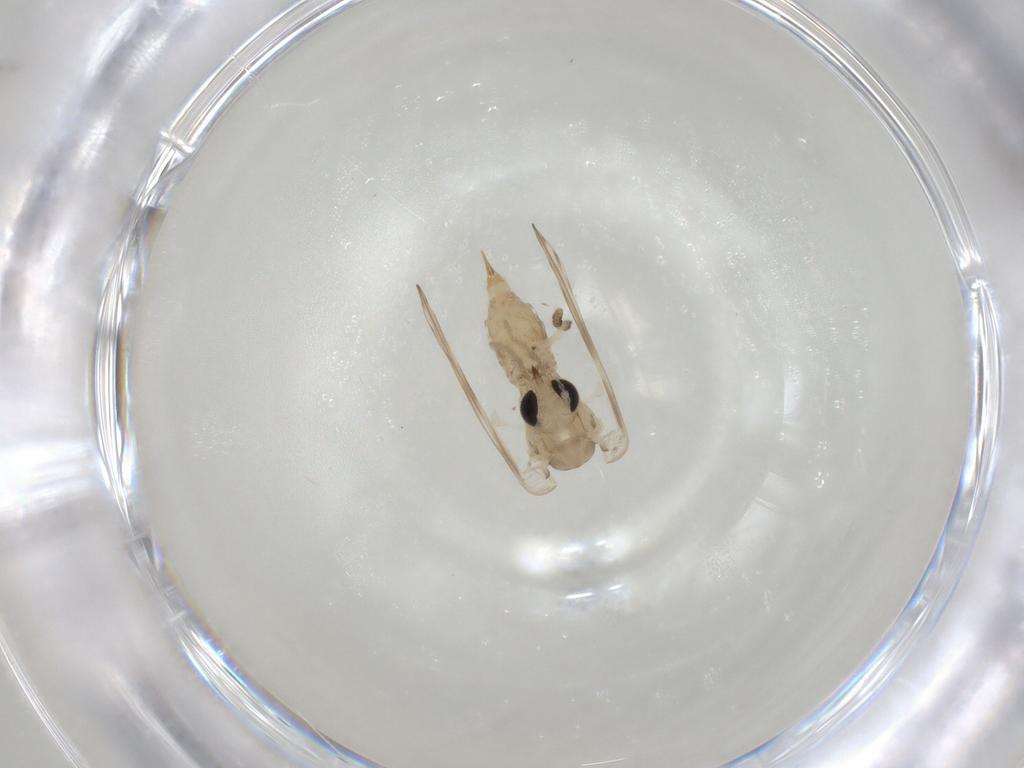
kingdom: Animalia
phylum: Arthropoda
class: Insecta
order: Diptera
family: Psychodidae
